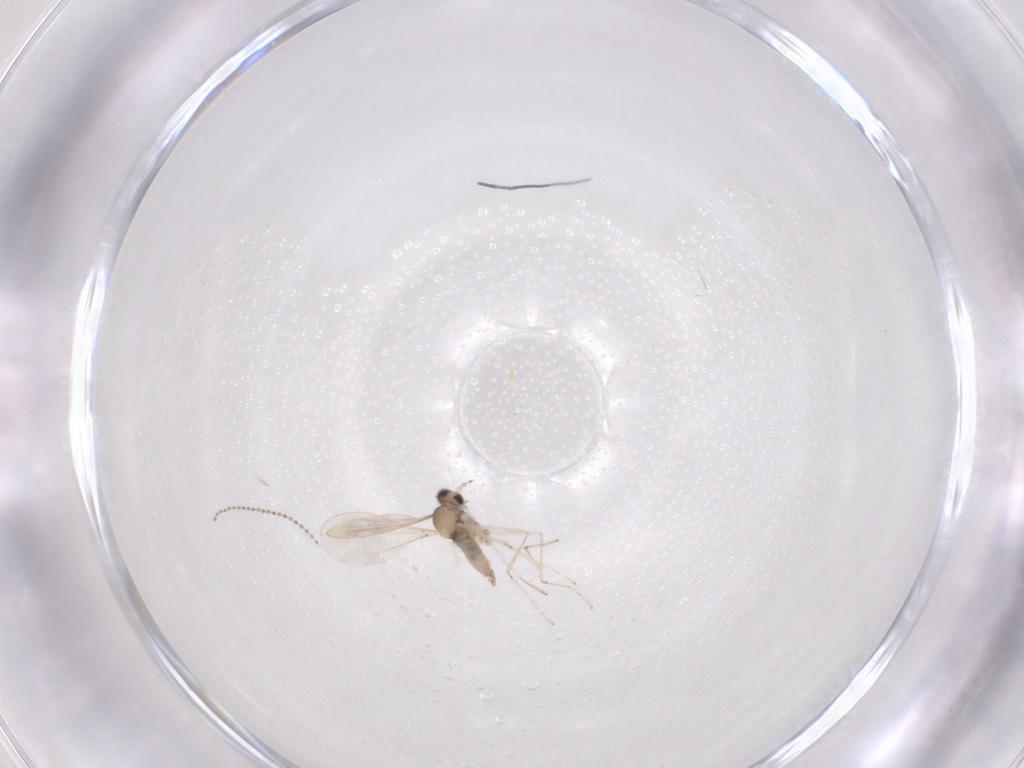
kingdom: Animalia
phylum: Arthropoda
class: Insecta
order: Diptera
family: Cecidomyiidae
